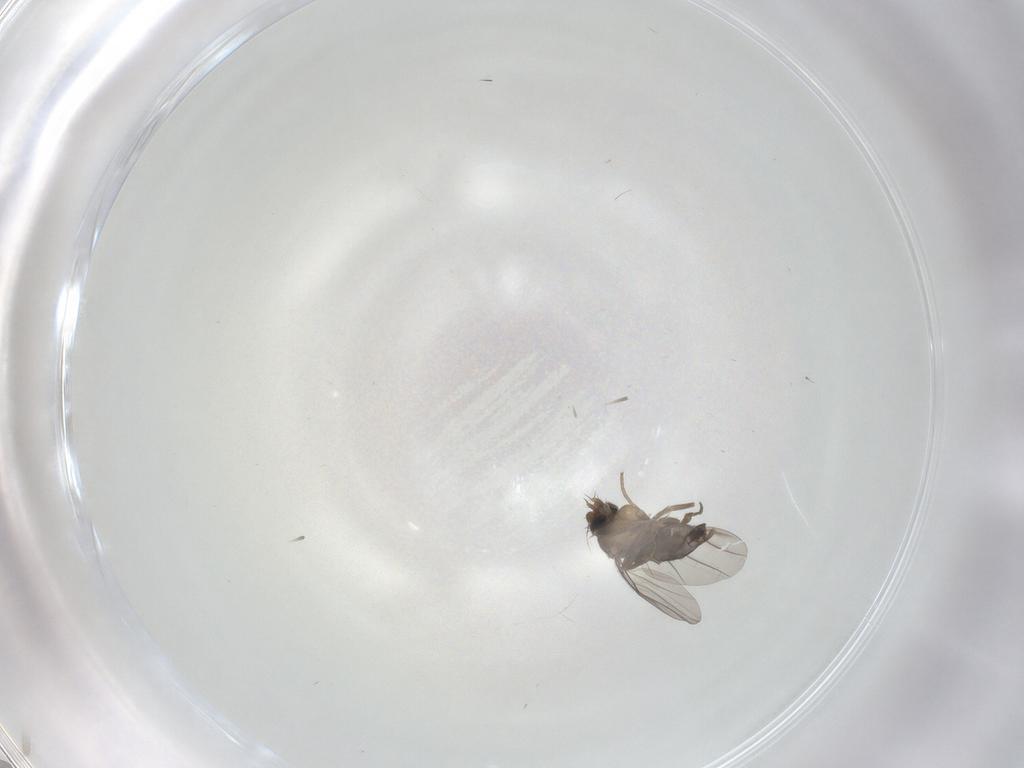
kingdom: Animalia
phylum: Arthropoda
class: Insecta
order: Diptera
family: Phoridae
